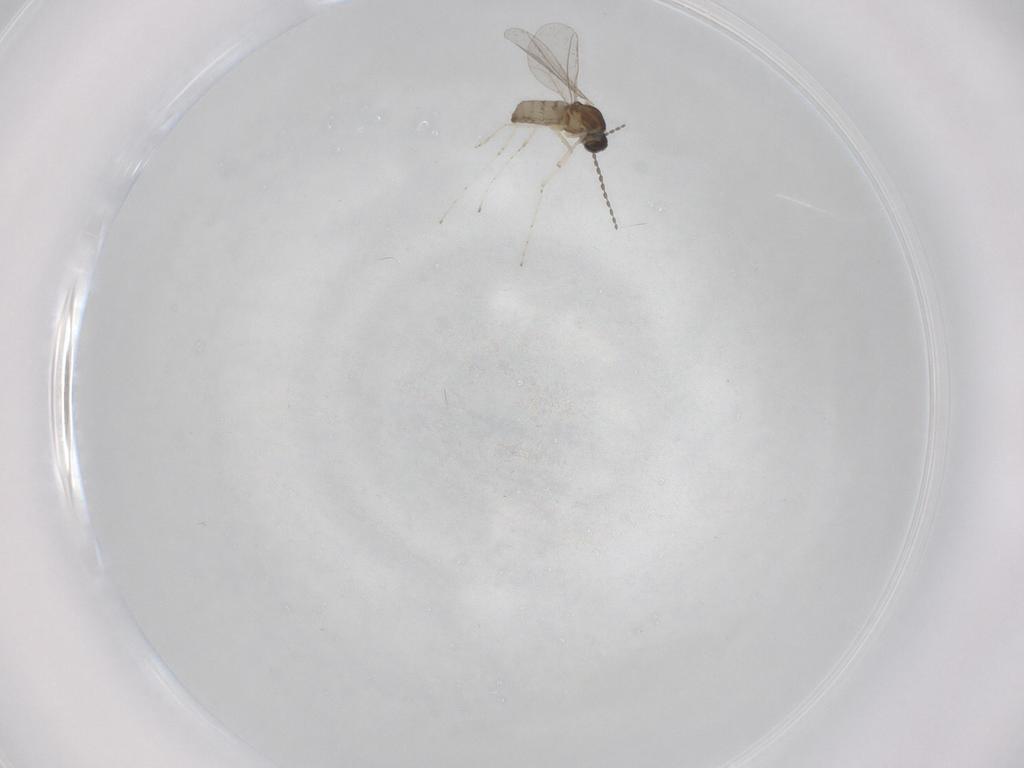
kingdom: Animalia
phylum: Arthropoda
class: Insecta
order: Diptera
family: Cecidomyiidae
